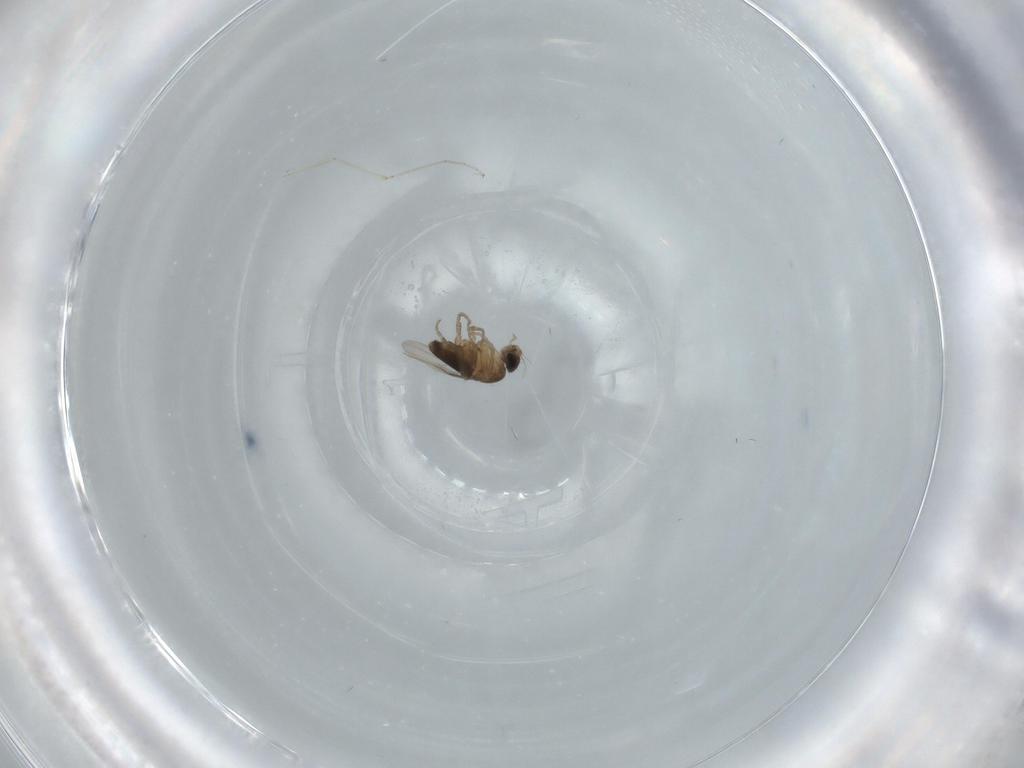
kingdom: Animalia
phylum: Arthropoda
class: Insecta
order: Diptera
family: Phoridae
